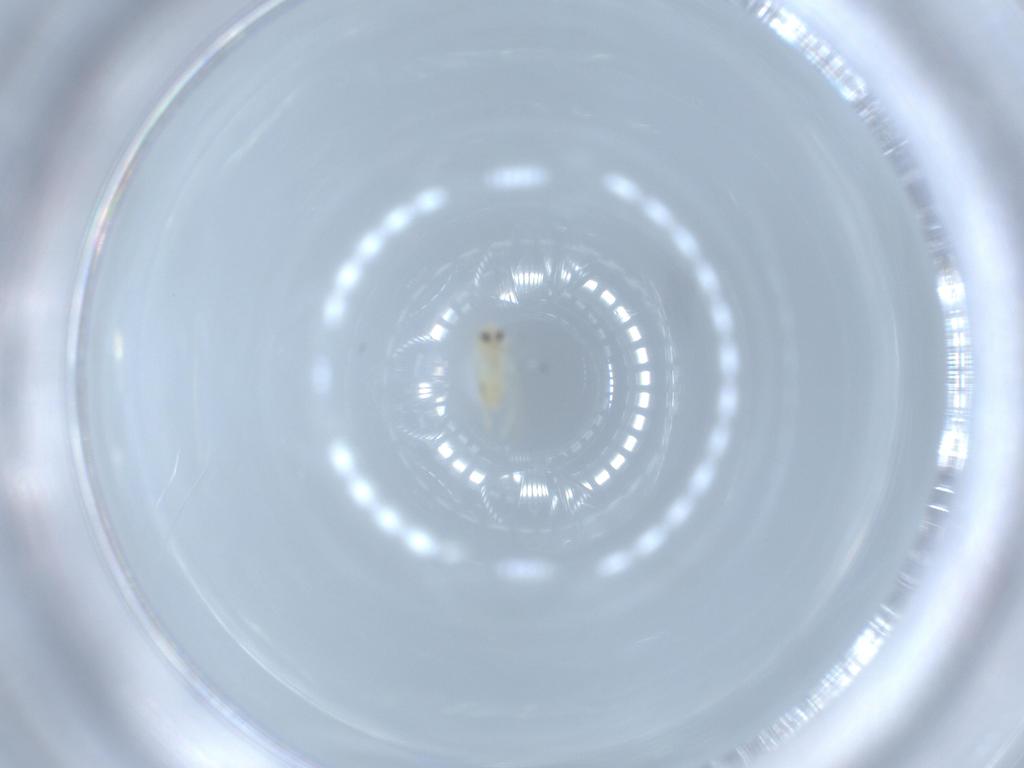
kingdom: Animalia
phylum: Arthropoda
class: Insecta
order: Hemiptera
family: Aleyrodidae
